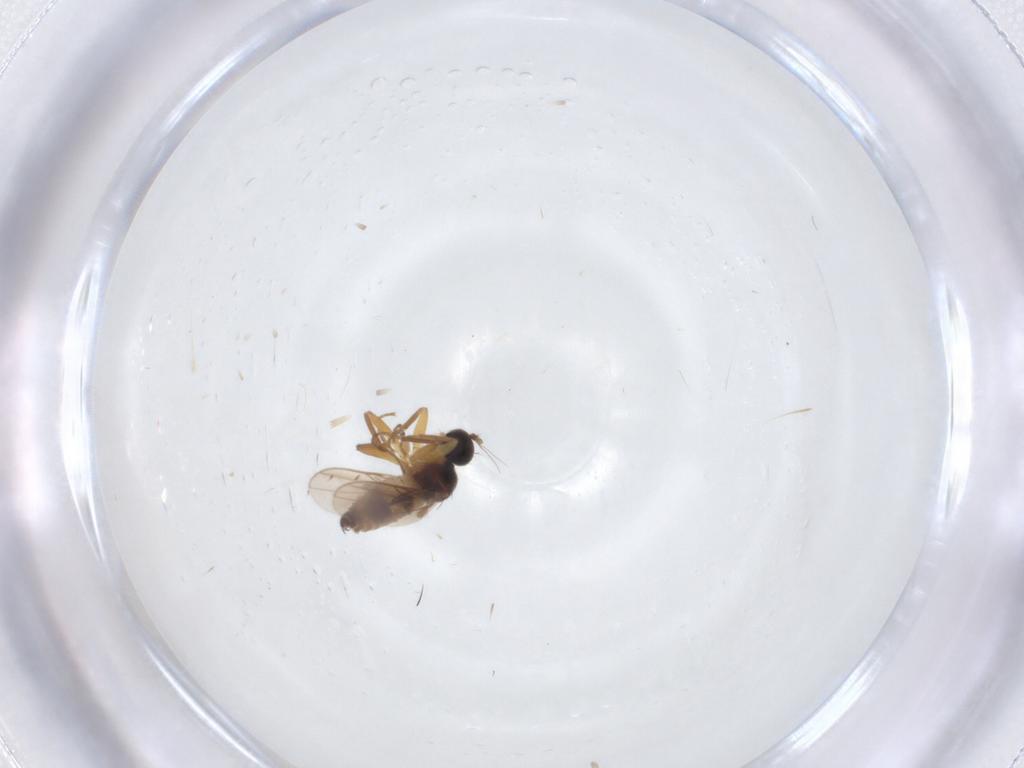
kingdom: Animalia
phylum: Arthropoda
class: Insecta
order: Diptera
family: Hybotidae
